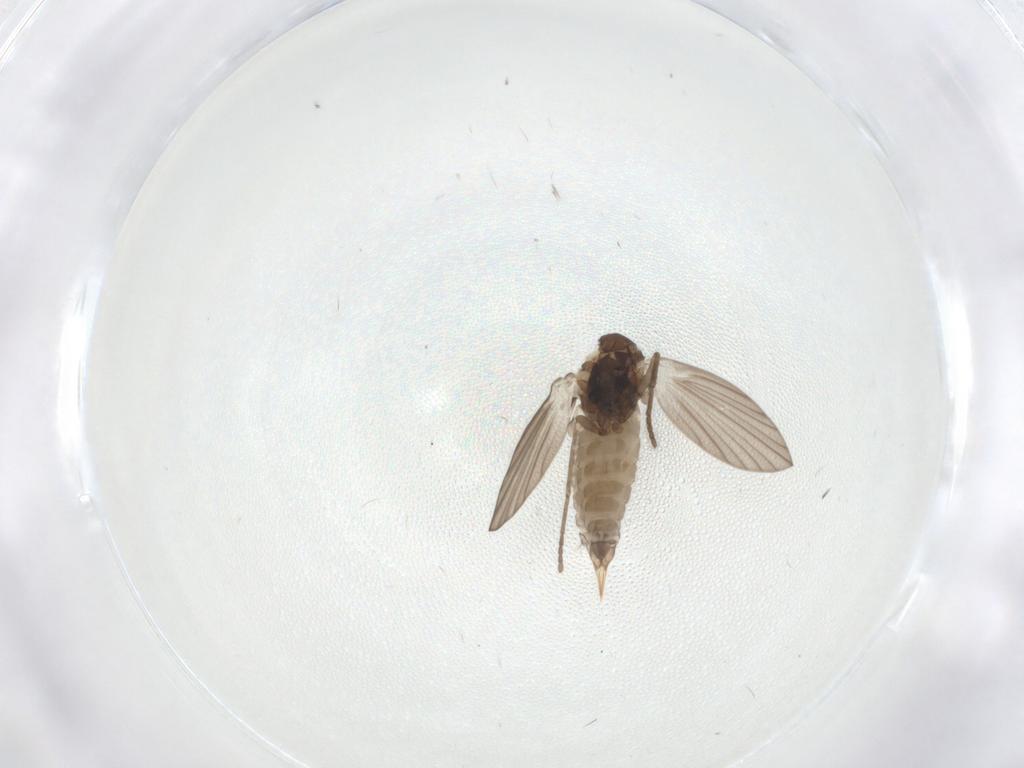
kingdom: Animalia
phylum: Arthropoda
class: Insecta
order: Diptera
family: Psychodidae
